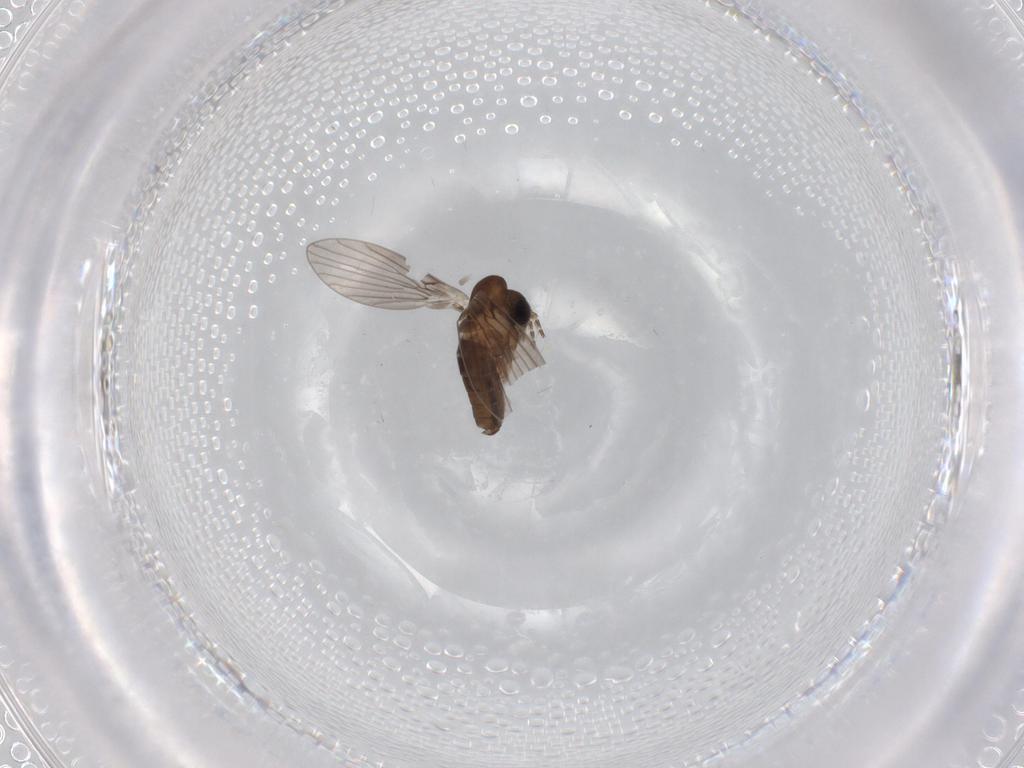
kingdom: Animalia
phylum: Arthropoda
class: Insecta
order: Diptera
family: Psychodidae
